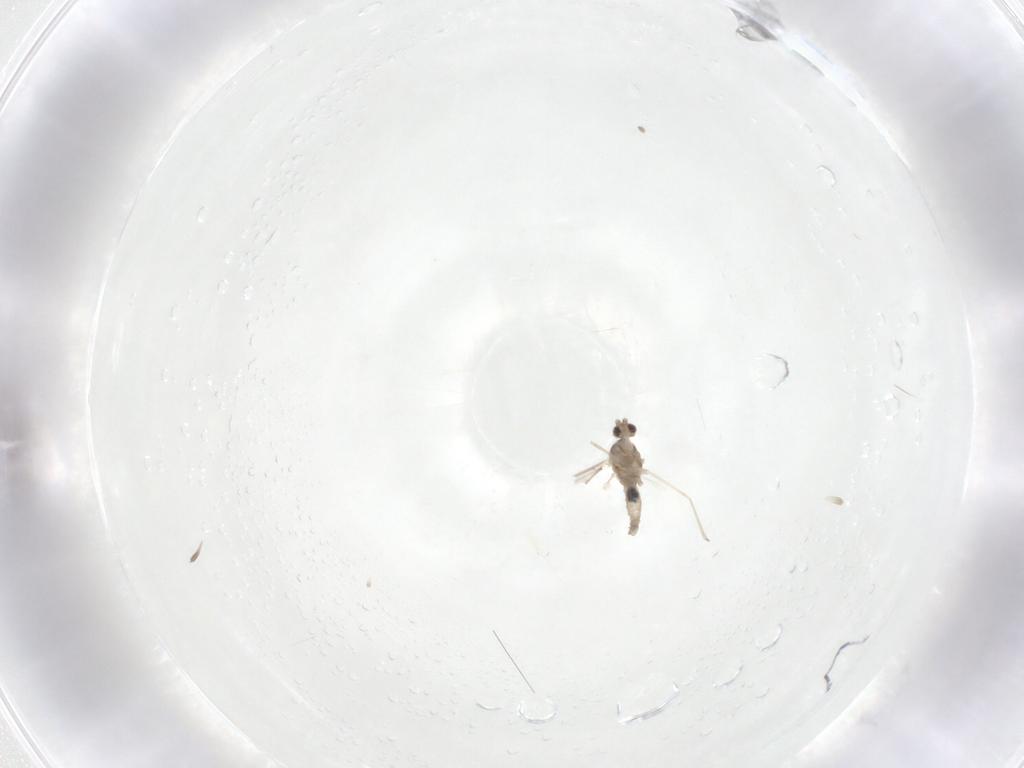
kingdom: Animalia
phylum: Arthropoda
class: Insecta
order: Diptera
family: Cecidomyiidae
